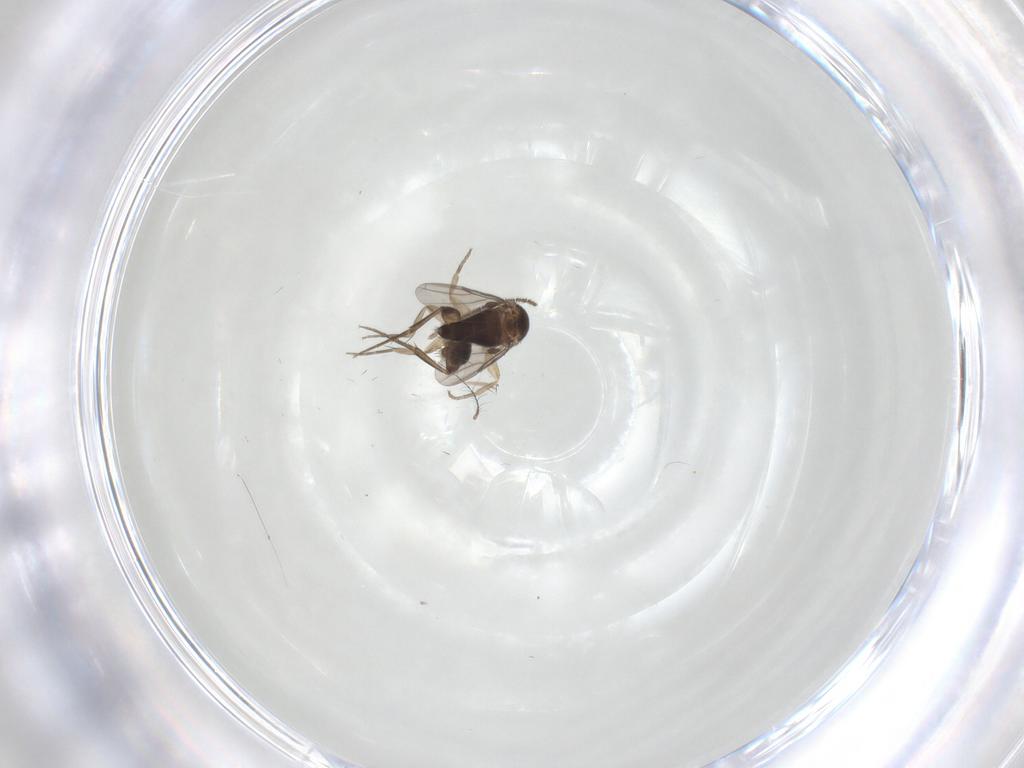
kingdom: Animalia
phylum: Arthropoda
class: Insecta
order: Diptera
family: Phoridae
